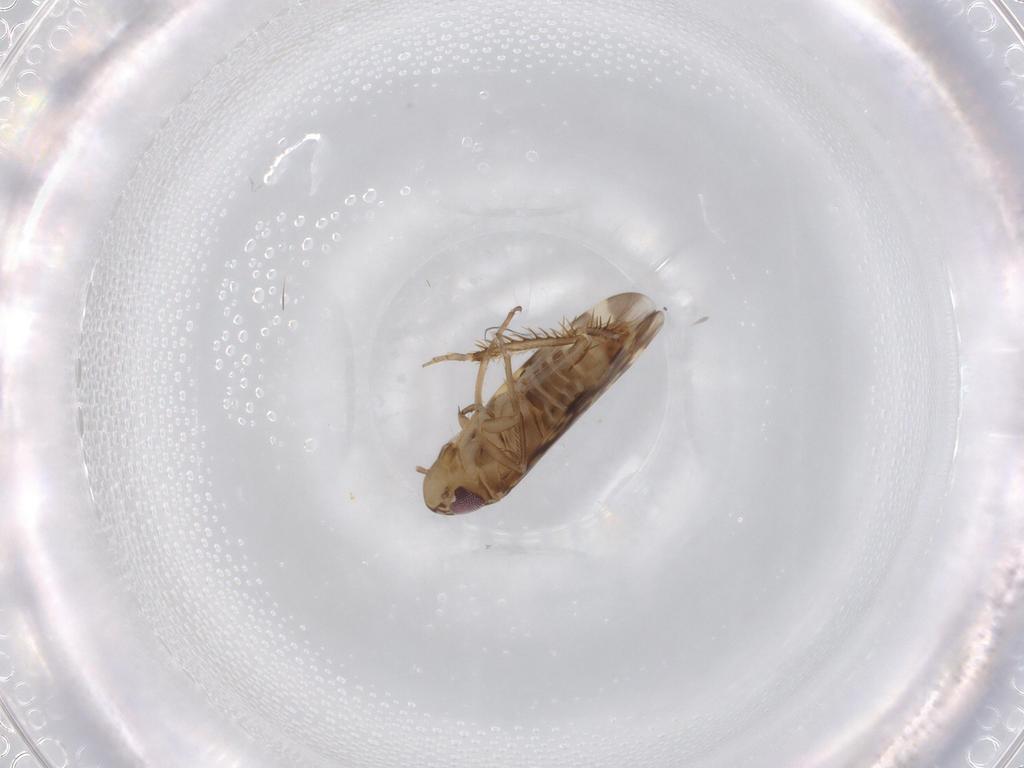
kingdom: Animalia
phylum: Arthropoda
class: Insecta
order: Hemiptera
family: Cicadellidae
